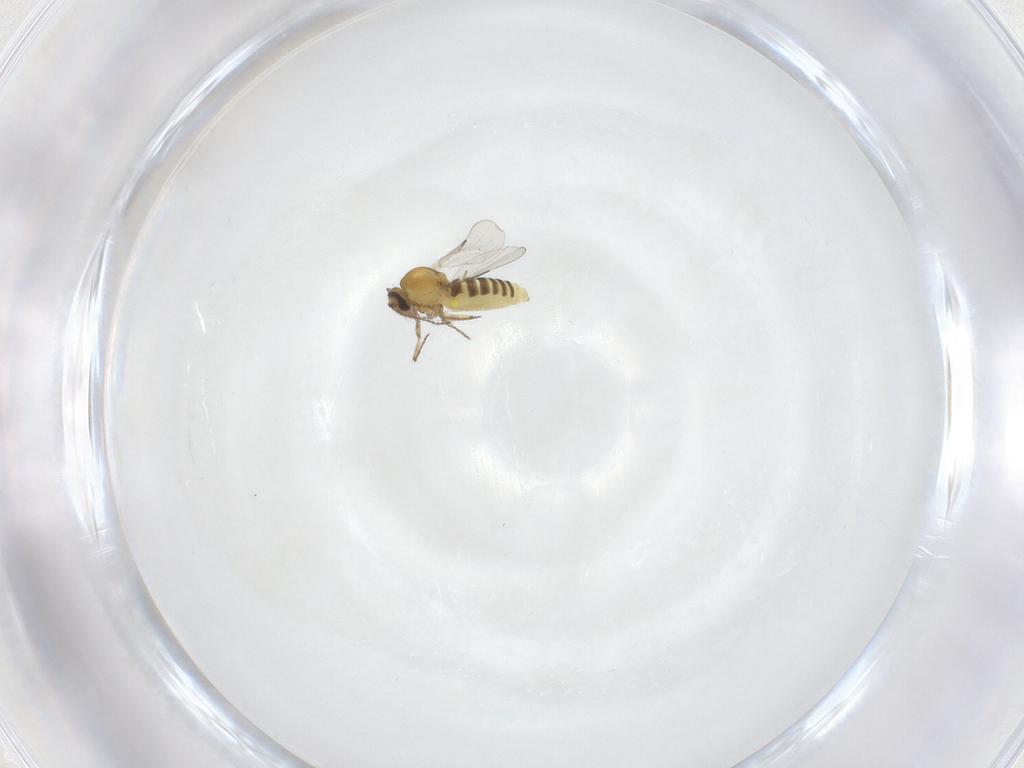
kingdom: Animalia
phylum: Arthropoda
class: Insecta
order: Diptera
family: Ceratopogonidae
